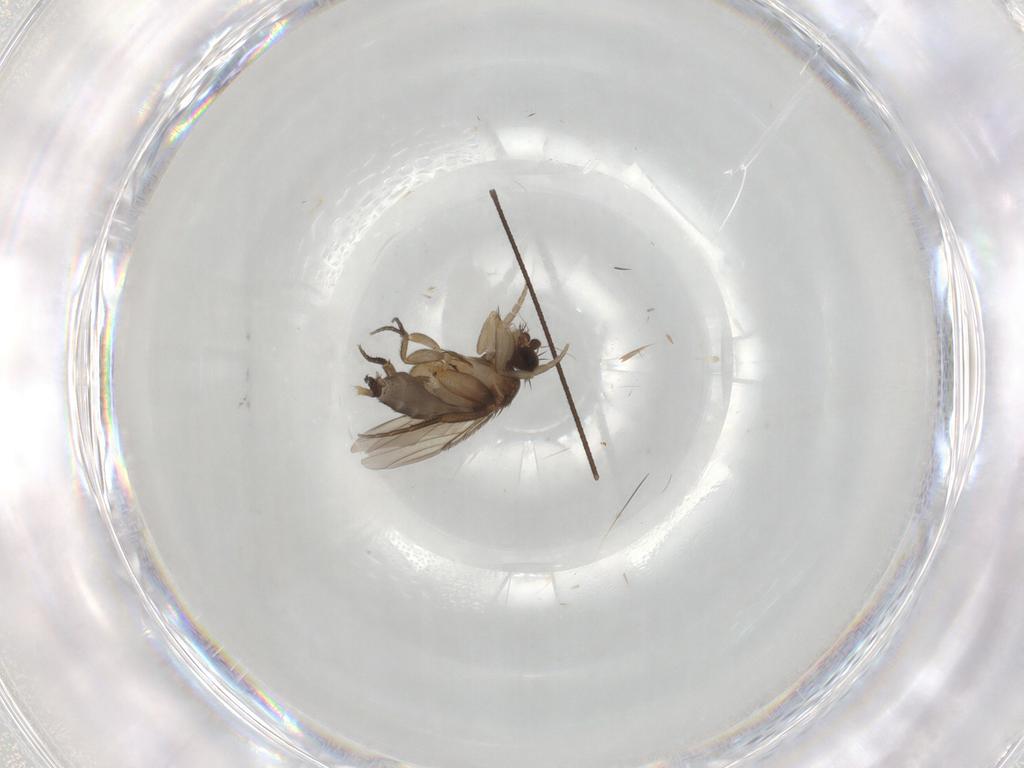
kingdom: Animalia
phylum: Arthropoda
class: Insecta
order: Diptera
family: Phoridae
